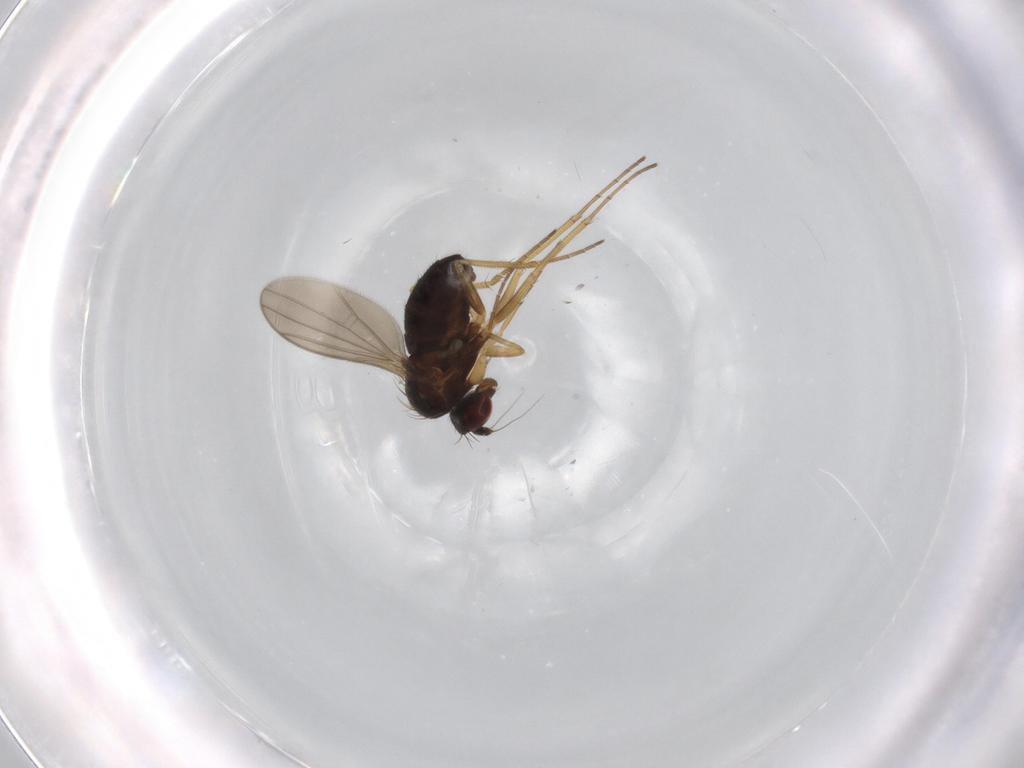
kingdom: Animalia
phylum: Arthropoda
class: Insecta
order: Diptera
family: Dolichopodidae
